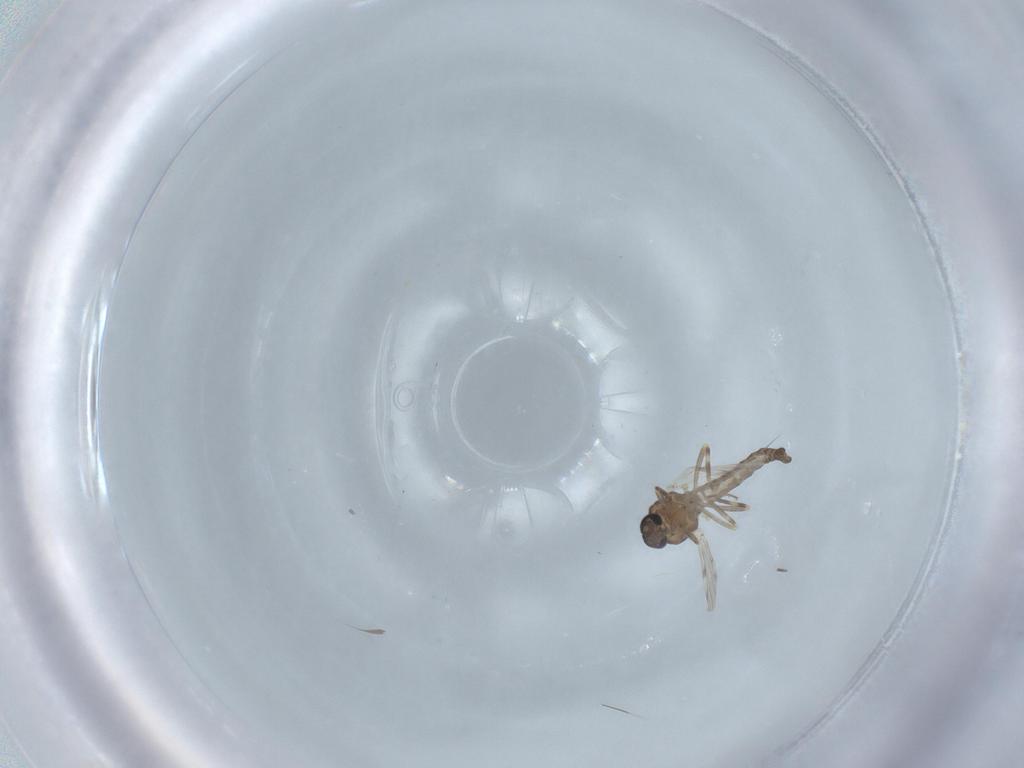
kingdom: Animalia
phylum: Arthropoda
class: Insecta
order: Diptera
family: Ceratopogonidae
